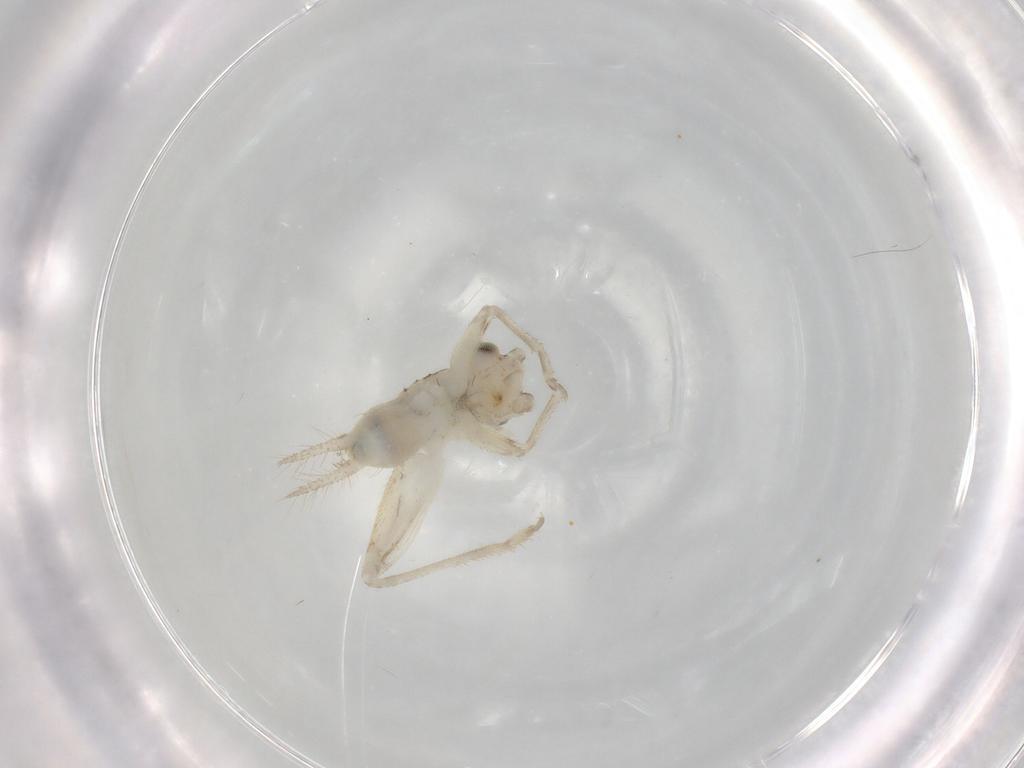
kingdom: Animalia
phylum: Arthropoda
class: Insecta
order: Orthoptera
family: Trigonidiidae
